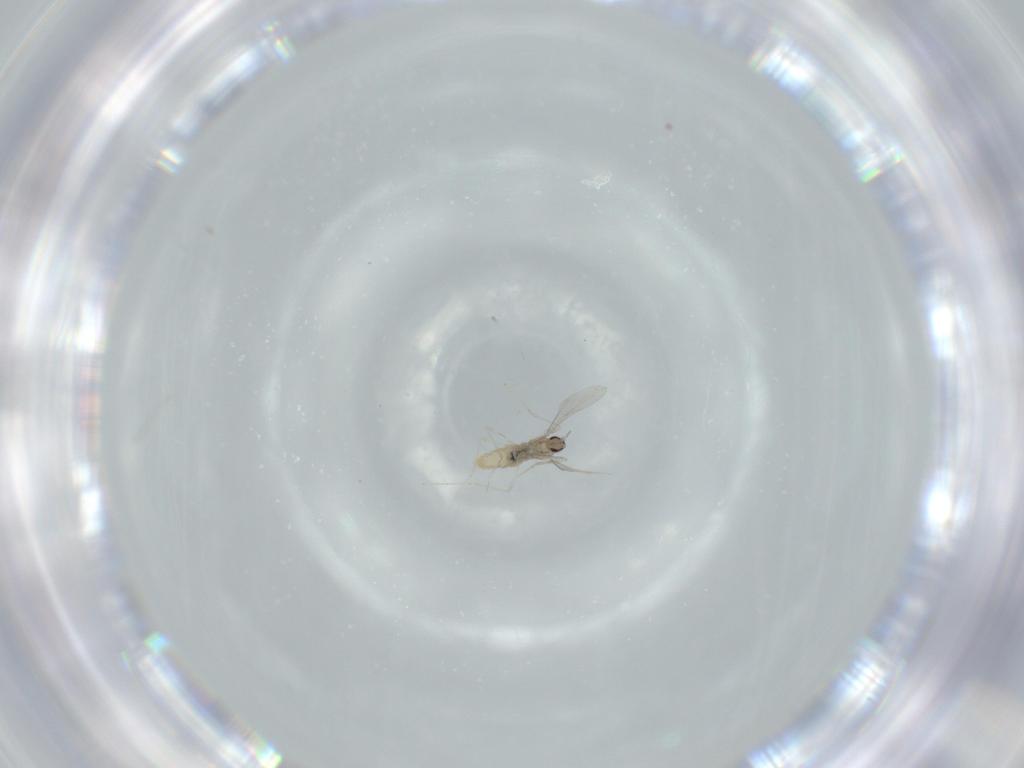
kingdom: Animalia
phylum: Arthropoda
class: Insecta
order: Diptera
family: Cecidomyiidae
